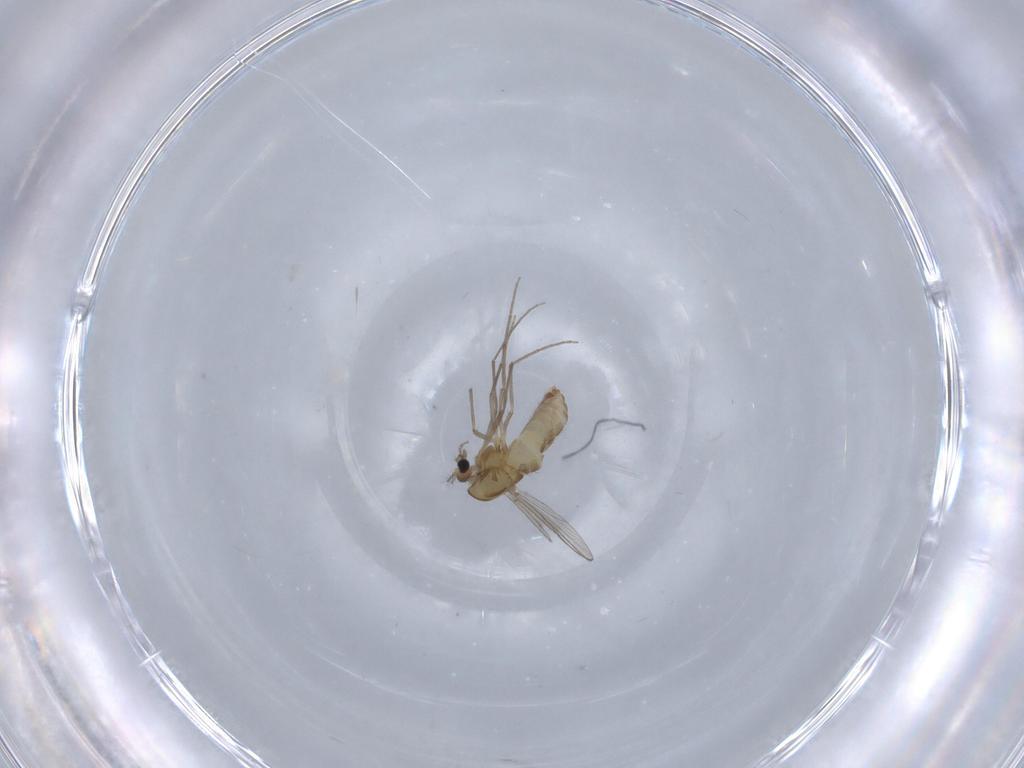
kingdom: Animalia
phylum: Arthropoda
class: Insecta
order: Diptera
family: Chironomidae
